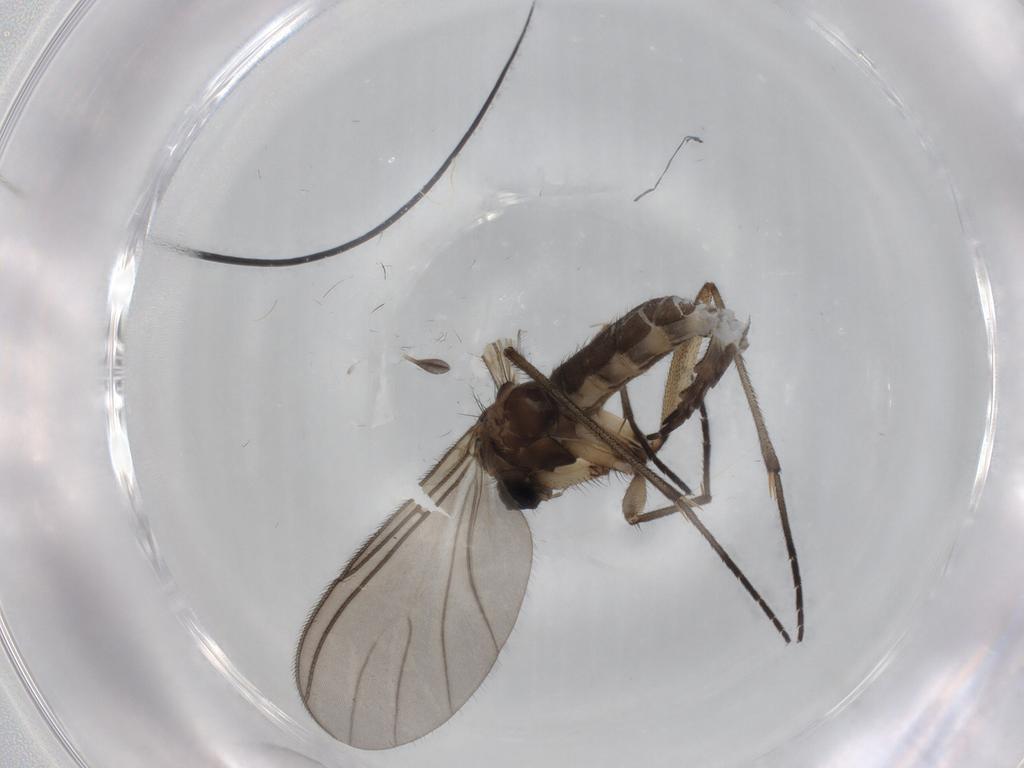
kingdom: Animalia
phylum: Arthropoda
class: Insecta
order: Diptera
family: Sciaridae
